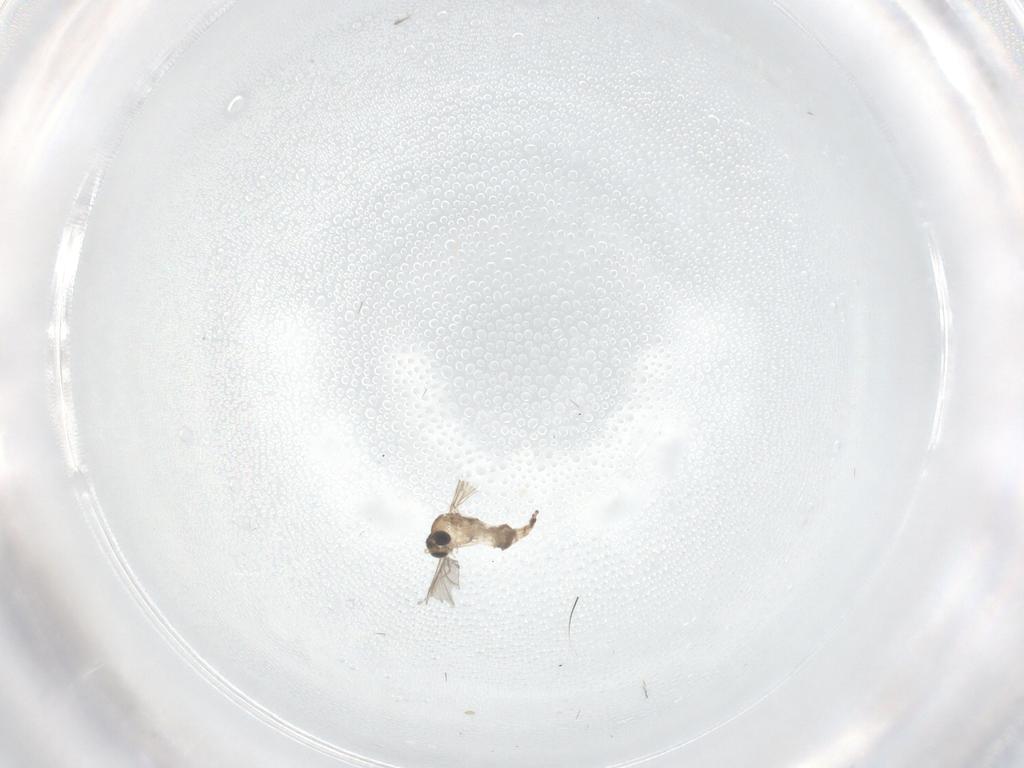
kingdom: Animalia
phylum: Arthropoda
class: Insecta
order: Diptera
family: Sciaridae
